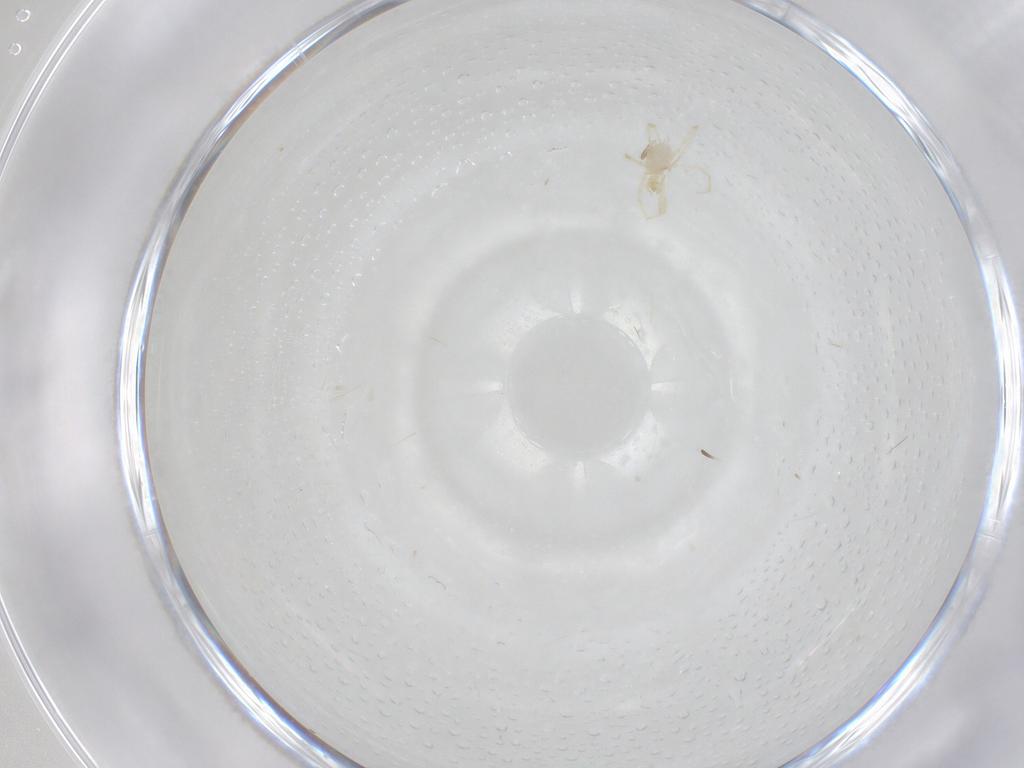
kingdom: Animalia
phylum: Arthropoda
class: Arachnida
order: Trombidiformes
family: Erythraeidae
